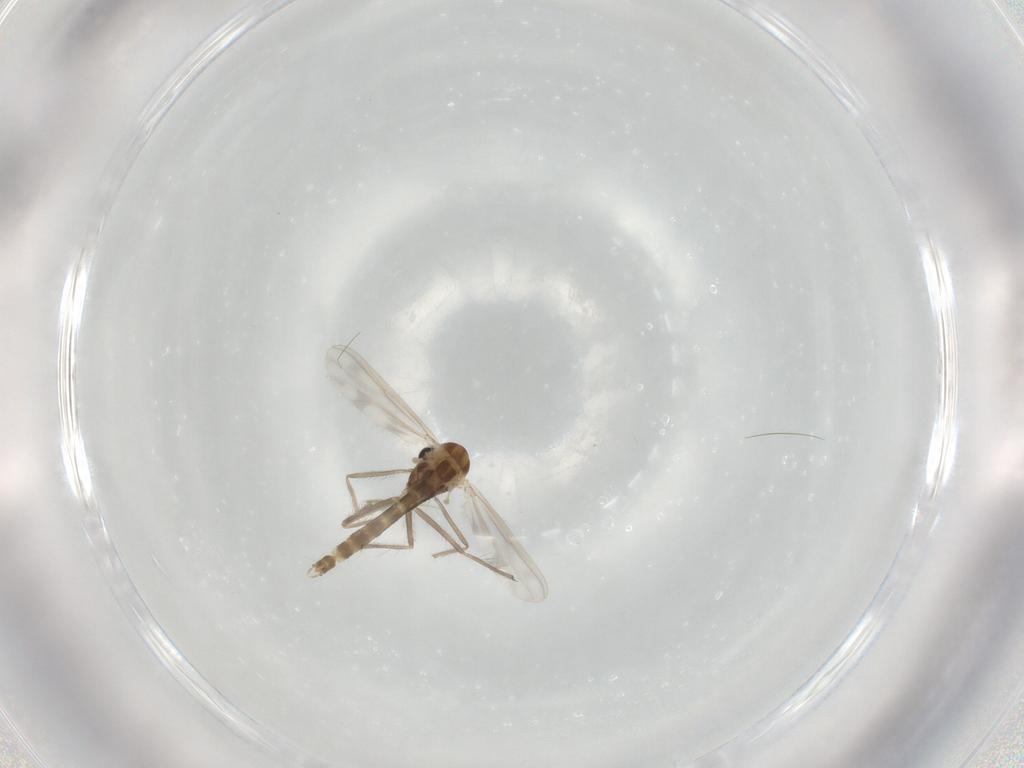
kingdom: Animalia
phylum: Arthropoda
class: Insecta
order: Diptera
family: Chironomidae
